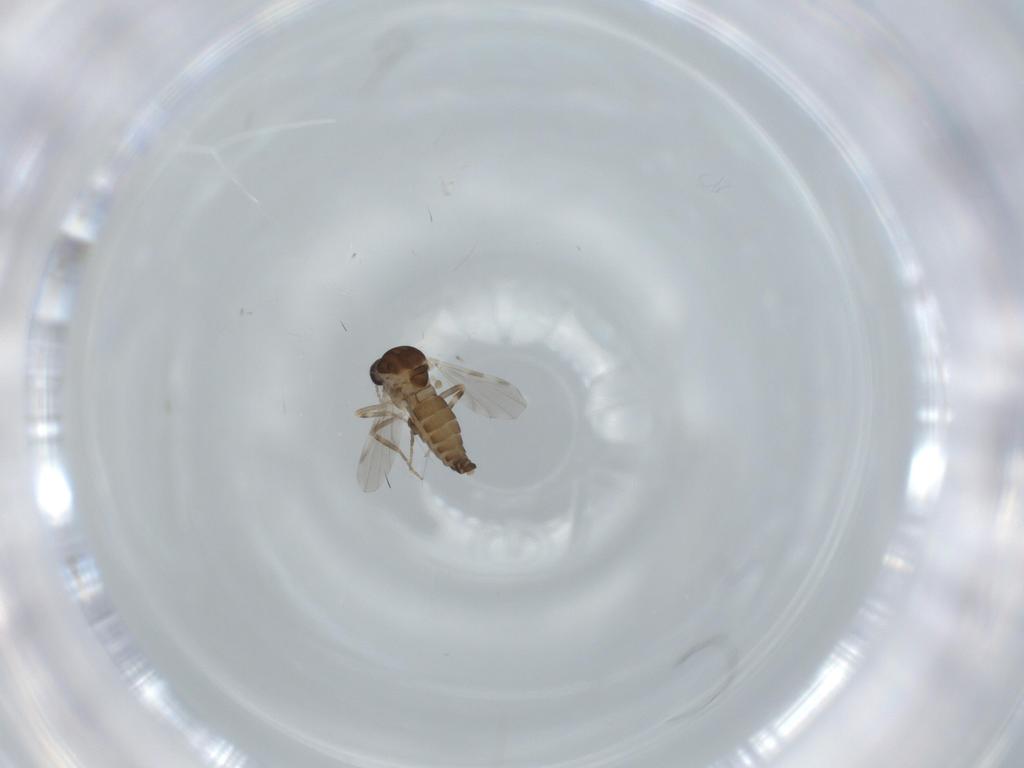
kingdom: Animalia
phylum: Arthropoda
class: Insecta
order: Diptera
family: Ceratopogonidae
